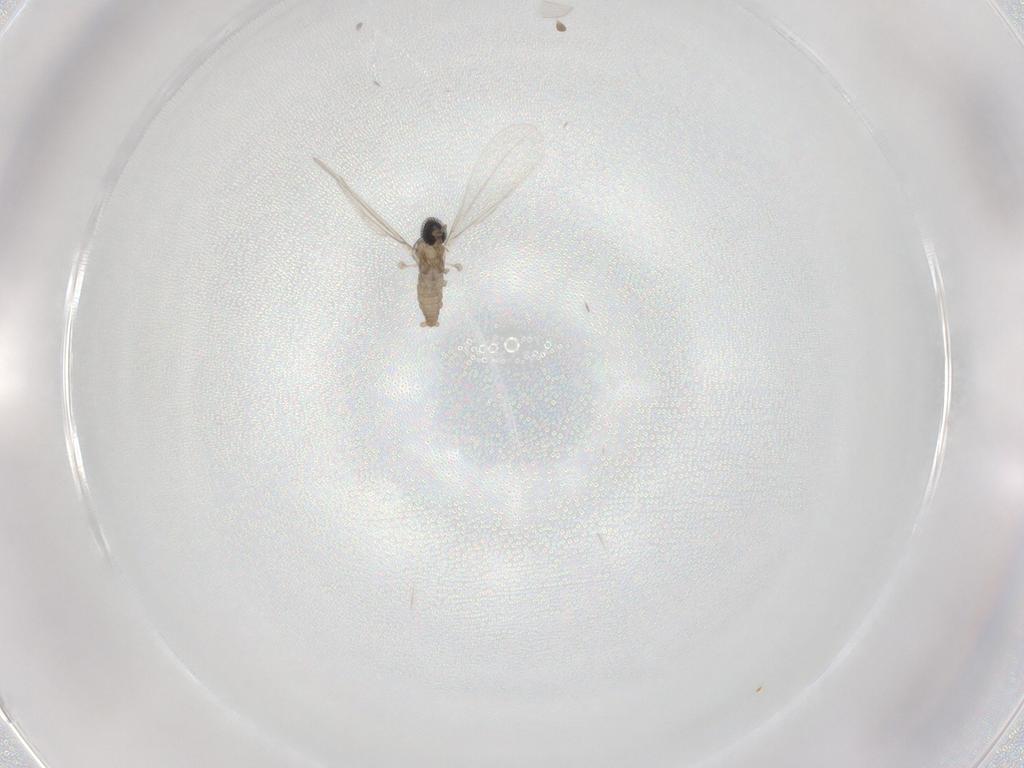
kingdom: Animalia
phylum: Arthropoda
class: Insecta
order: Diptera
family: Cecidomyiidae
